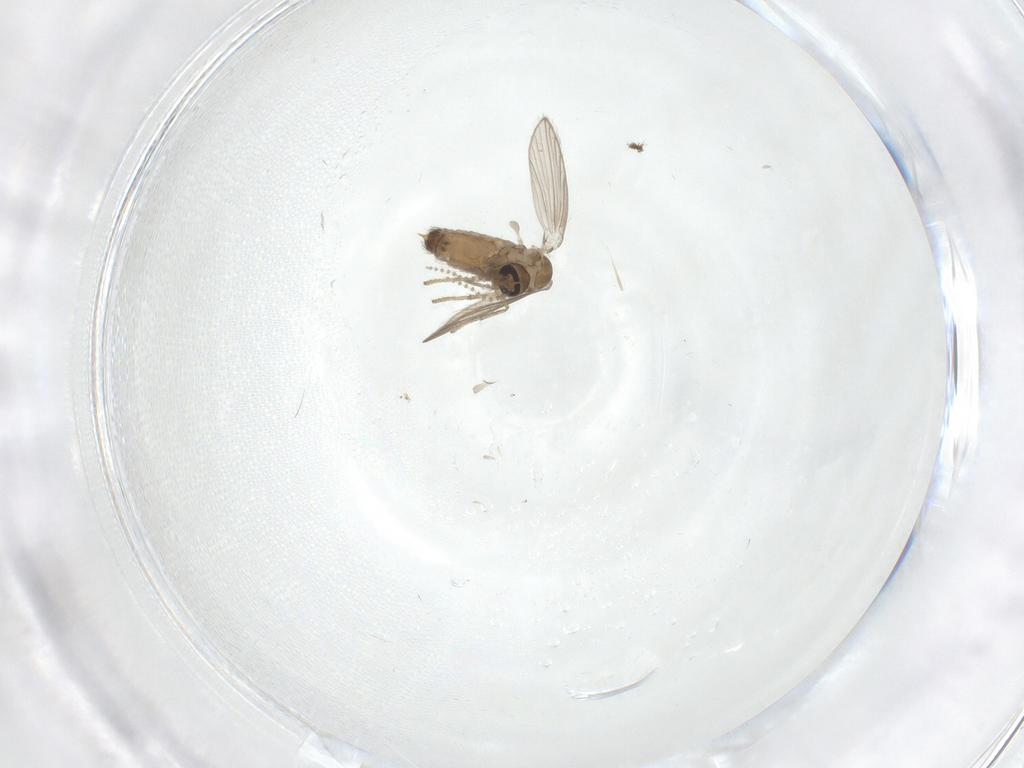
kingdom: Animalia
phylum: Arthropoda
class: Insecta
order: Diptera
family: Psychodidae
